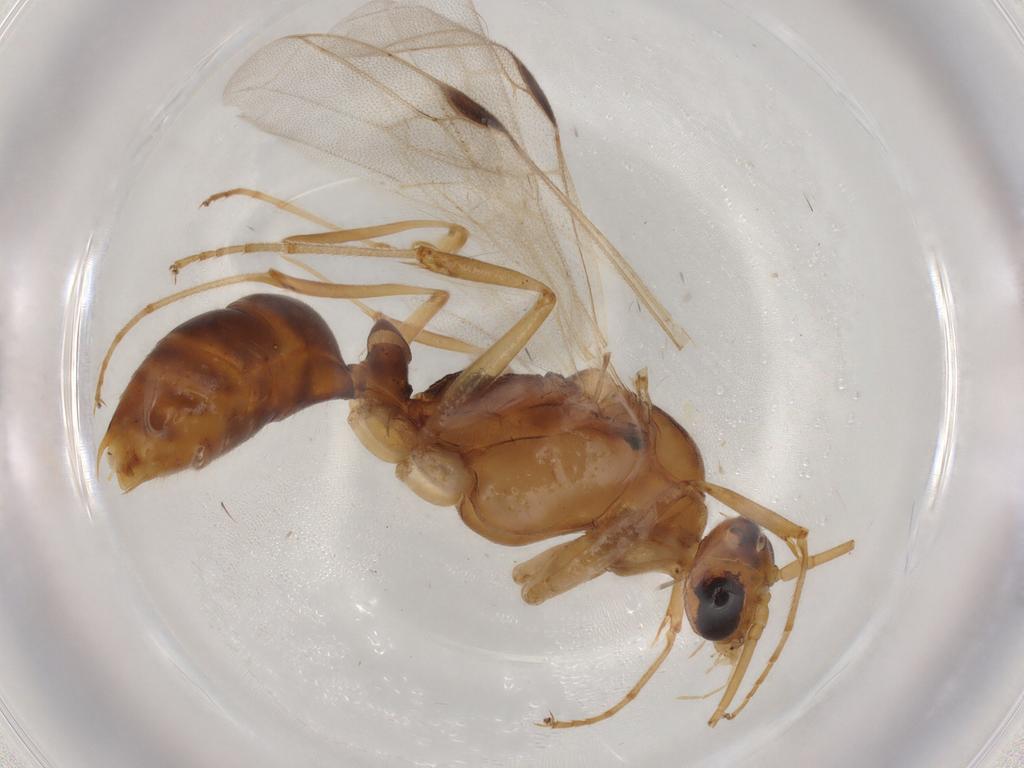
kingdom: Animalia
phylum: Arthropoda
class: Insecta
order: Hymenoptera
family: Formicidae
